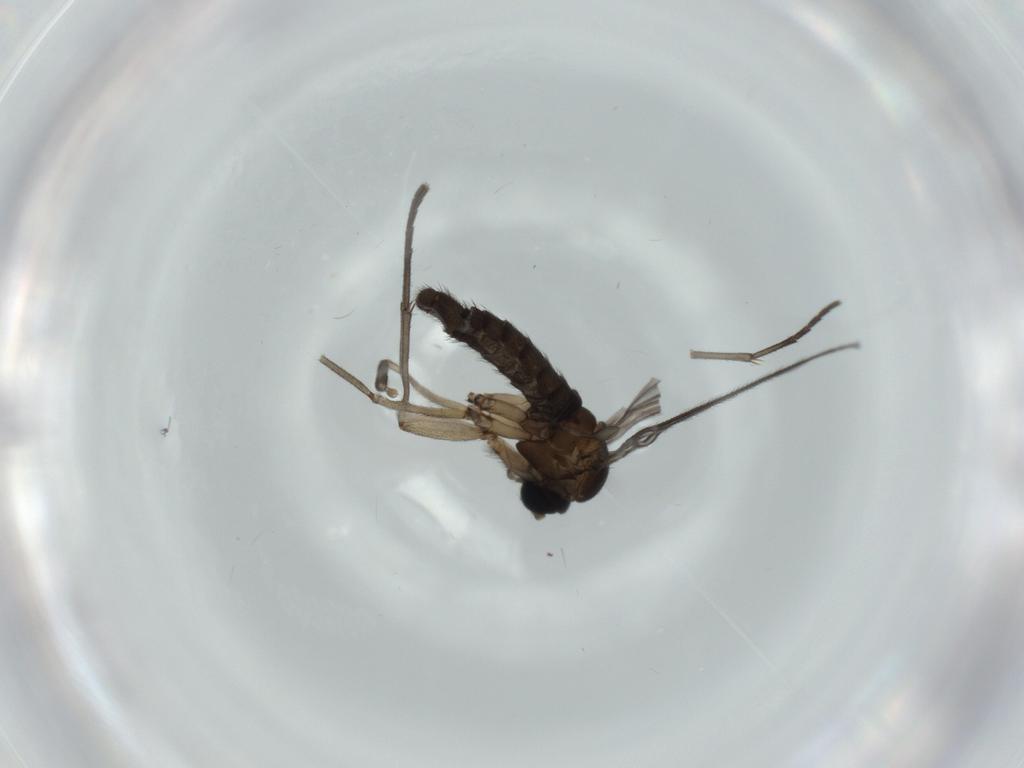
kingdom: Animalia
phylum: Arthropoda
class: Insecta
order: Diptera
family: Sciaridae
